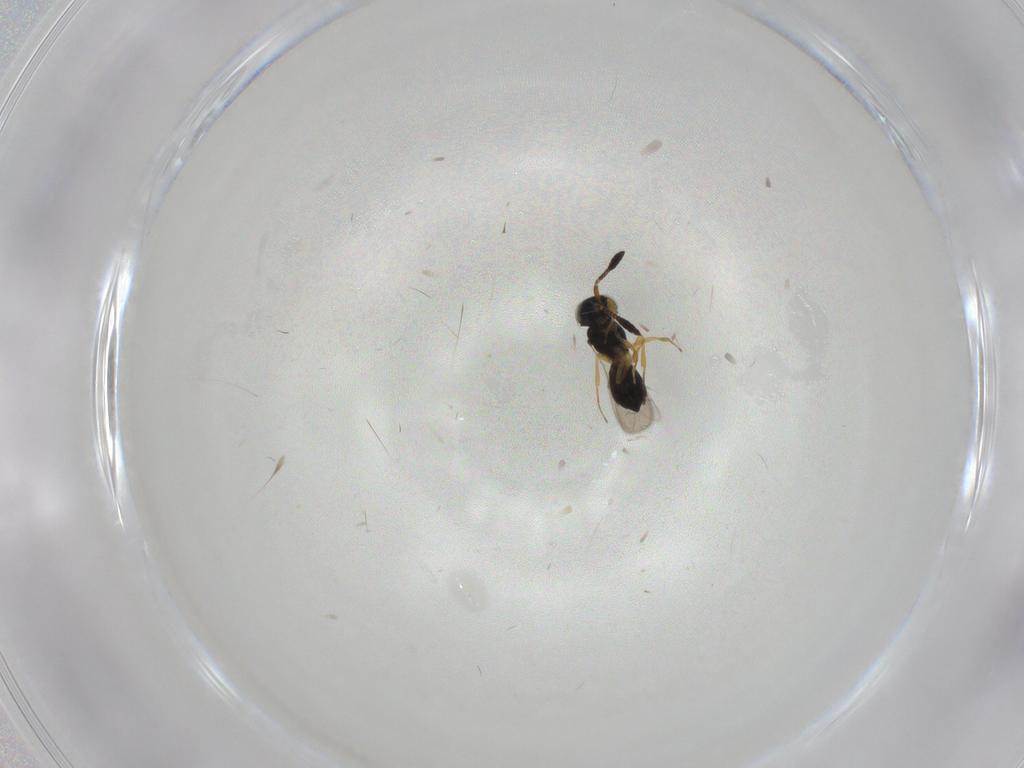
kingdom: Animalia
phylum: Arthropoda
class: Insecta
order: Hymenoptera
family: Scelionidae
